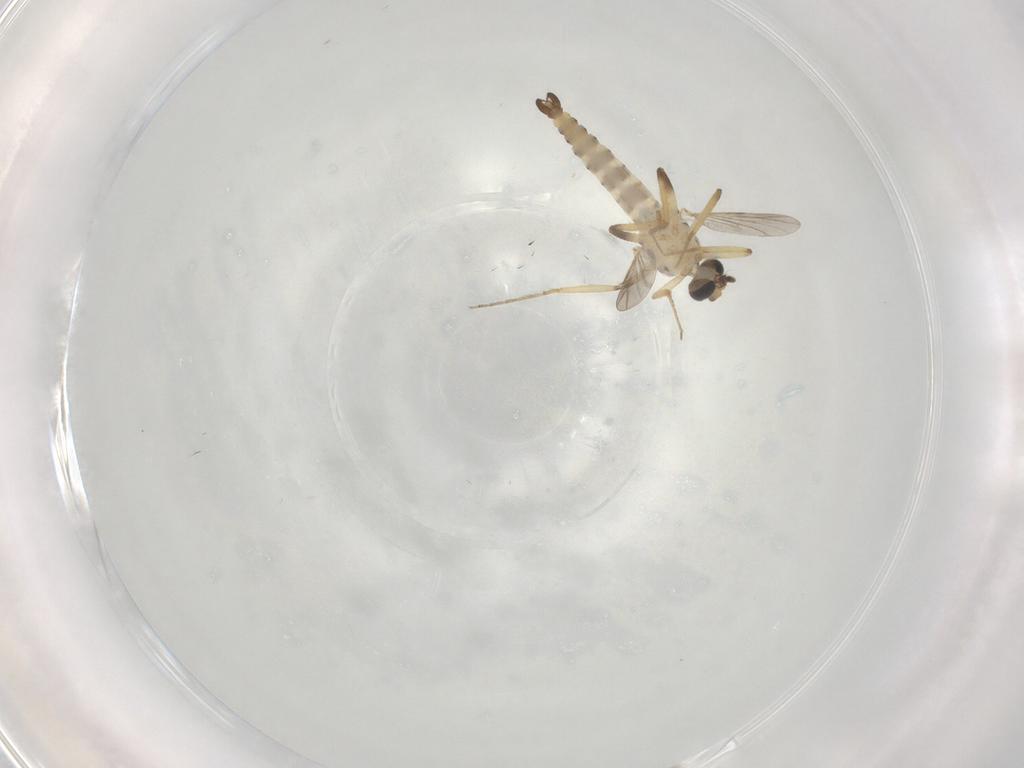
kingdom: Animalia
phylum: Arthropoda
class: Insecta
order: Diptera
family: Ceratopogonidae
